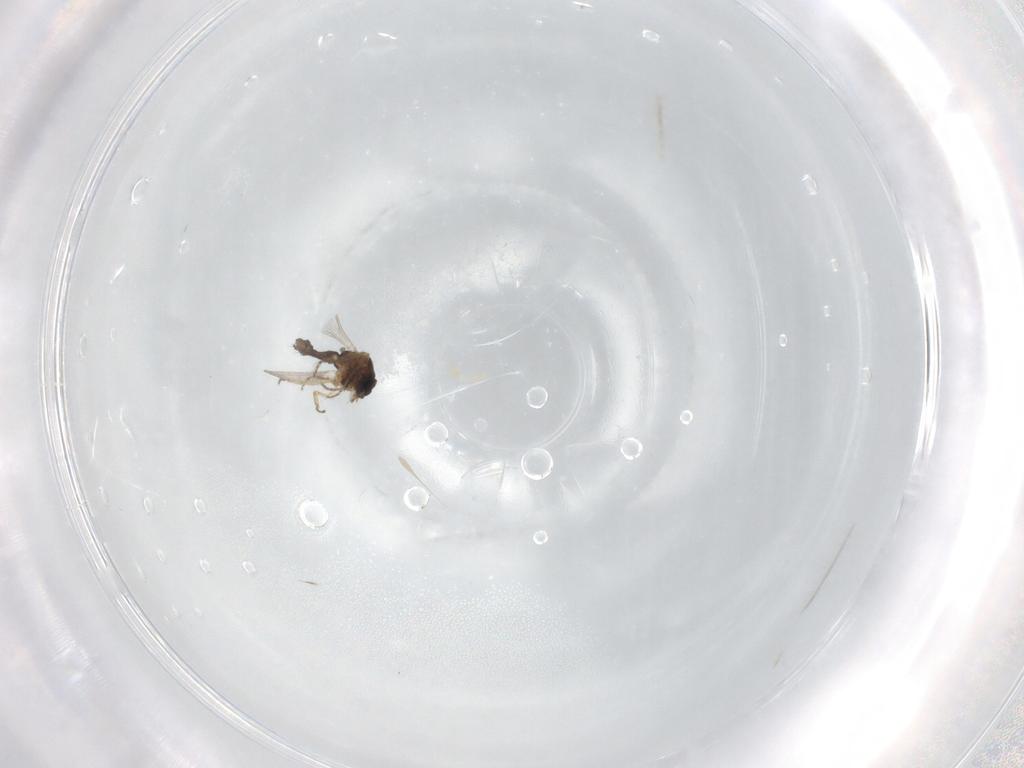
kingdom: Animalia
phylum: Arthropoda
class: Insecta
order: Diptera
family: Ceratopogonidae
